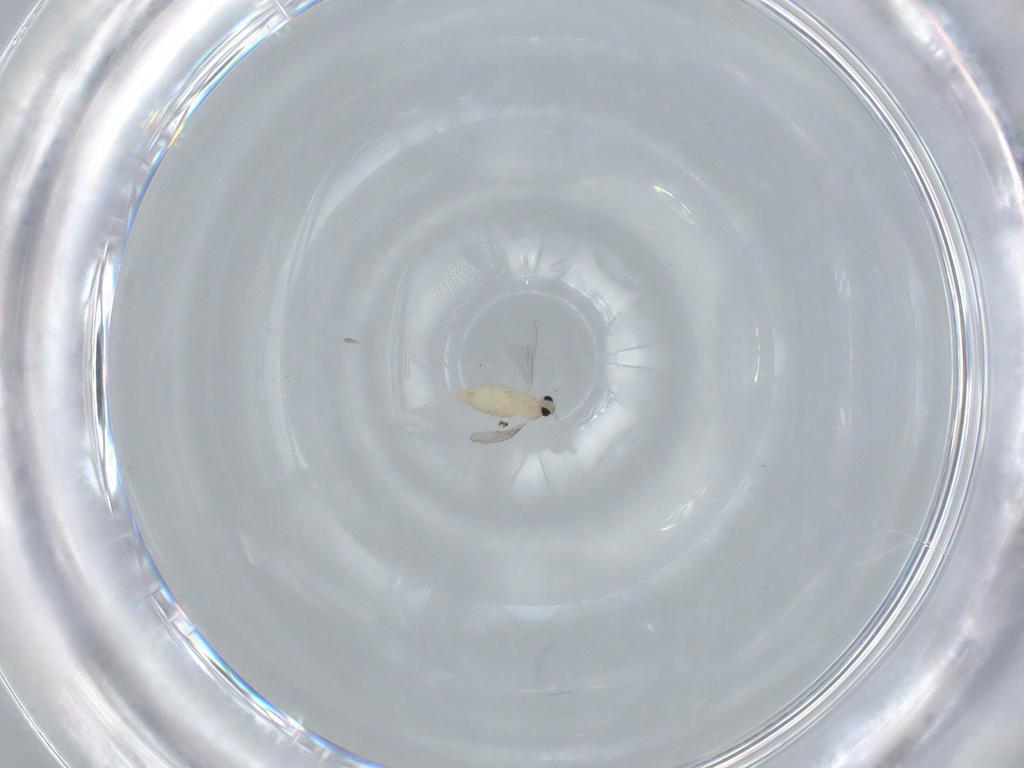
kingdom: Animalia
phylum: Arthropoda
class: Insecta
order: Diptera
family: Cecidomyiidae
